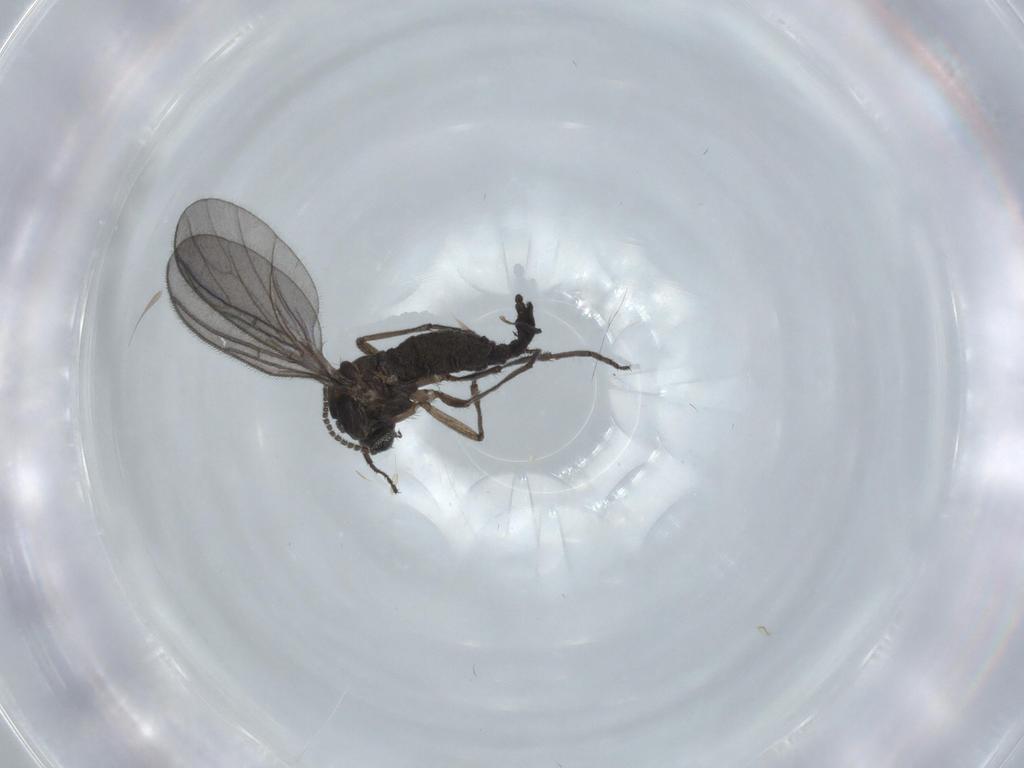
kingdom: Animalia
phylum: Arthropoda
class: Insecta
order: Diptera
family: Sciaridae
